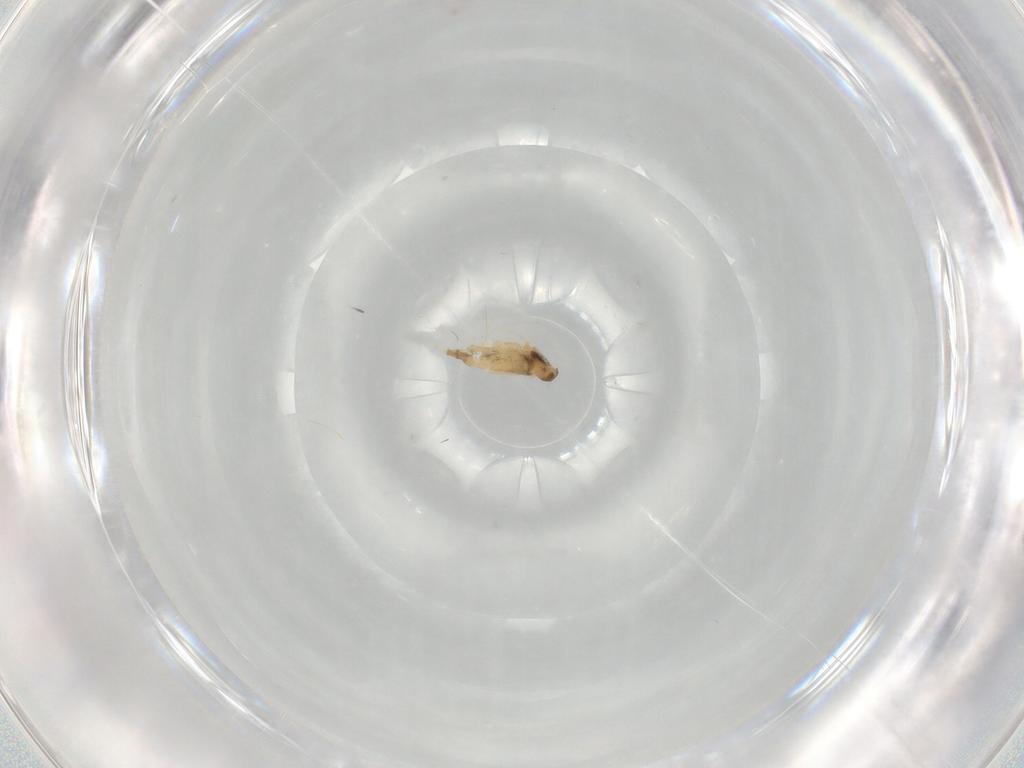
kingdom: Animalia
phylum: Arthropoda
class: Insecta
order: Diptera
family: Cecidomyiidae
